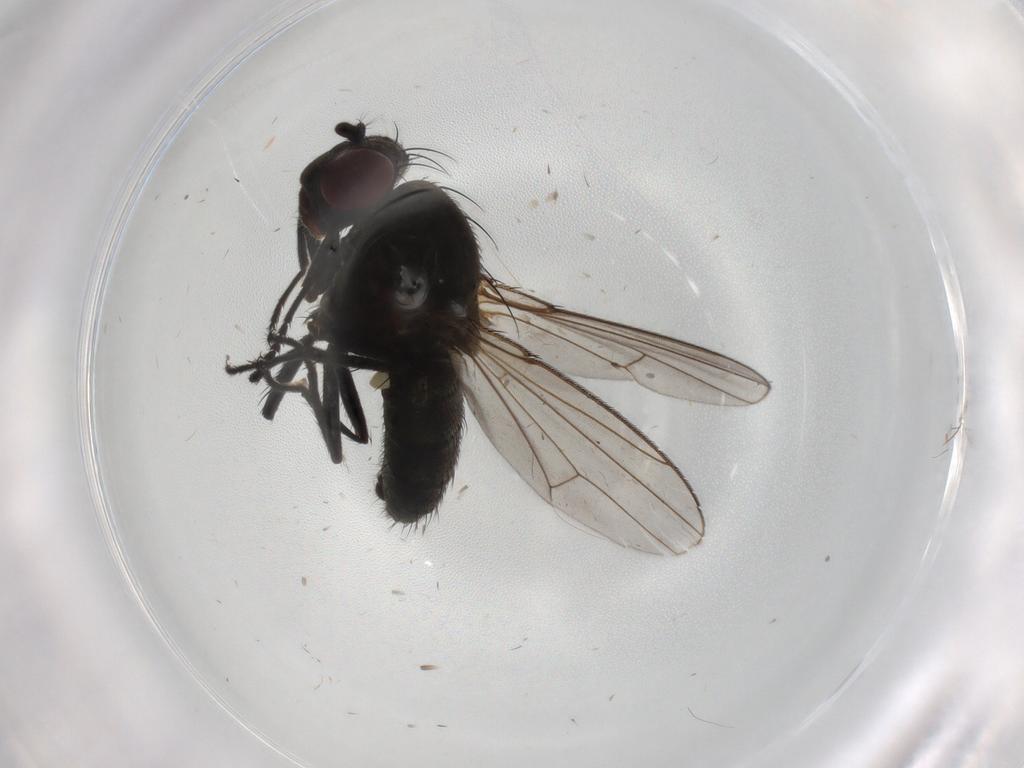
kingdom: Animalia
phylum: Arthropoda
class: Insecta
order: Diptera
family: Ephydridae
